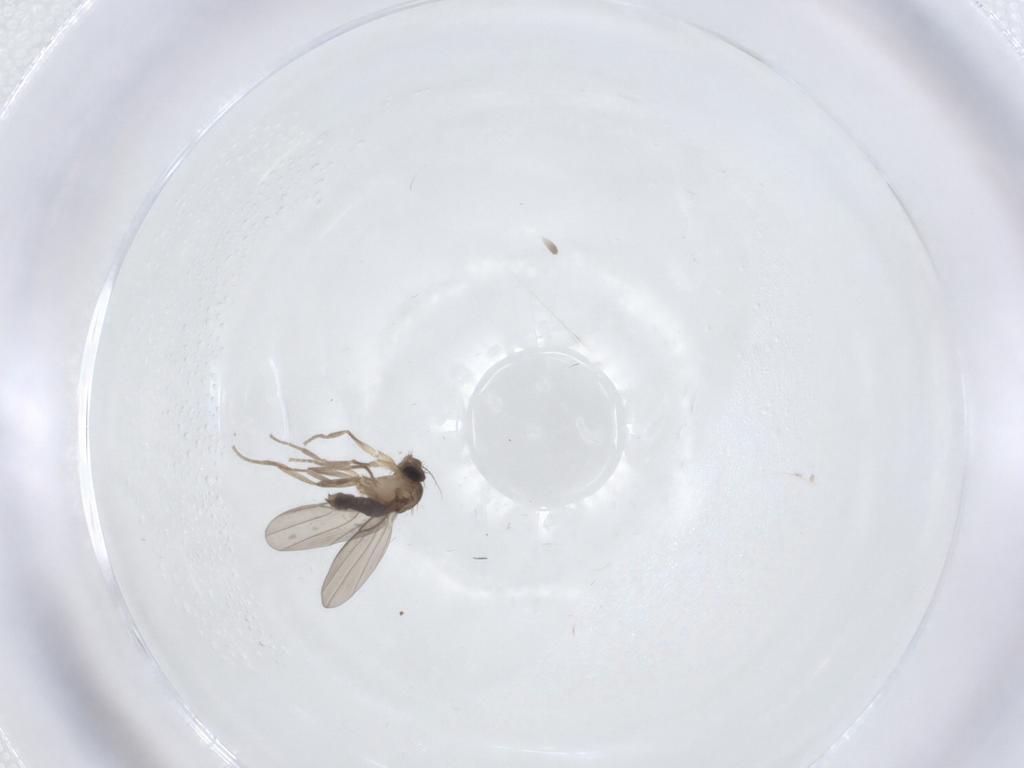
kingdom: Animalia
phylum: Arthropoda
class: Insecta
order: Diptera
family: Phoridae
